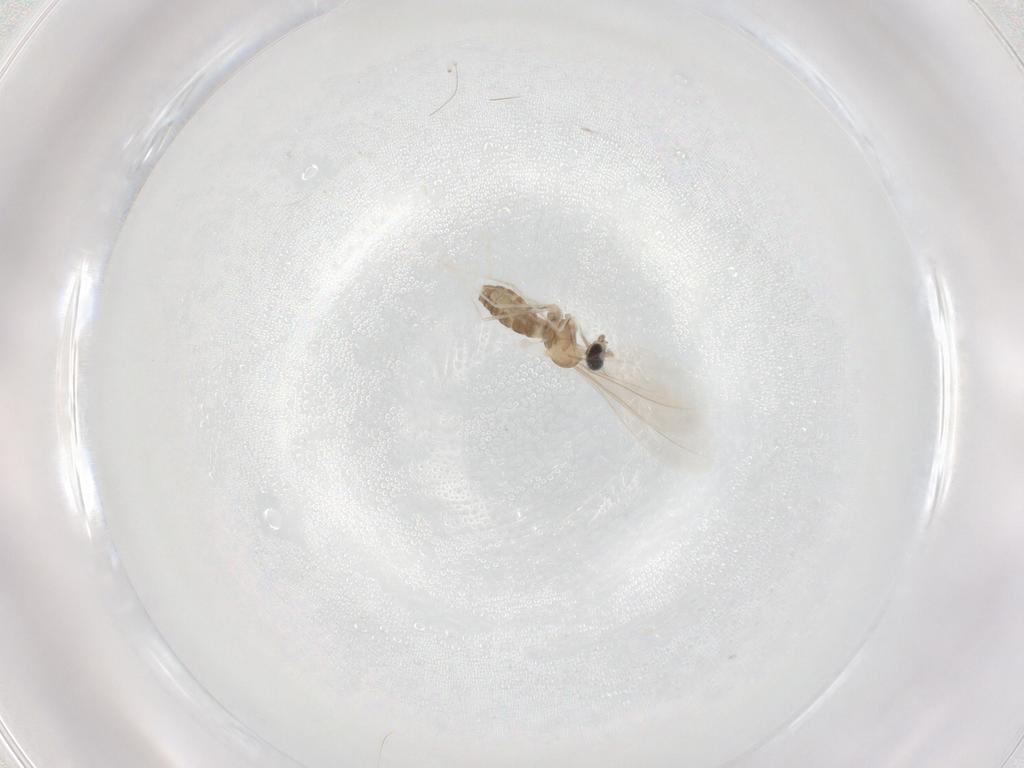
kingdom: Animalia
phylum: Arthropoda
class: Insecta
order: Diptera
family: Cecidomyiidae
